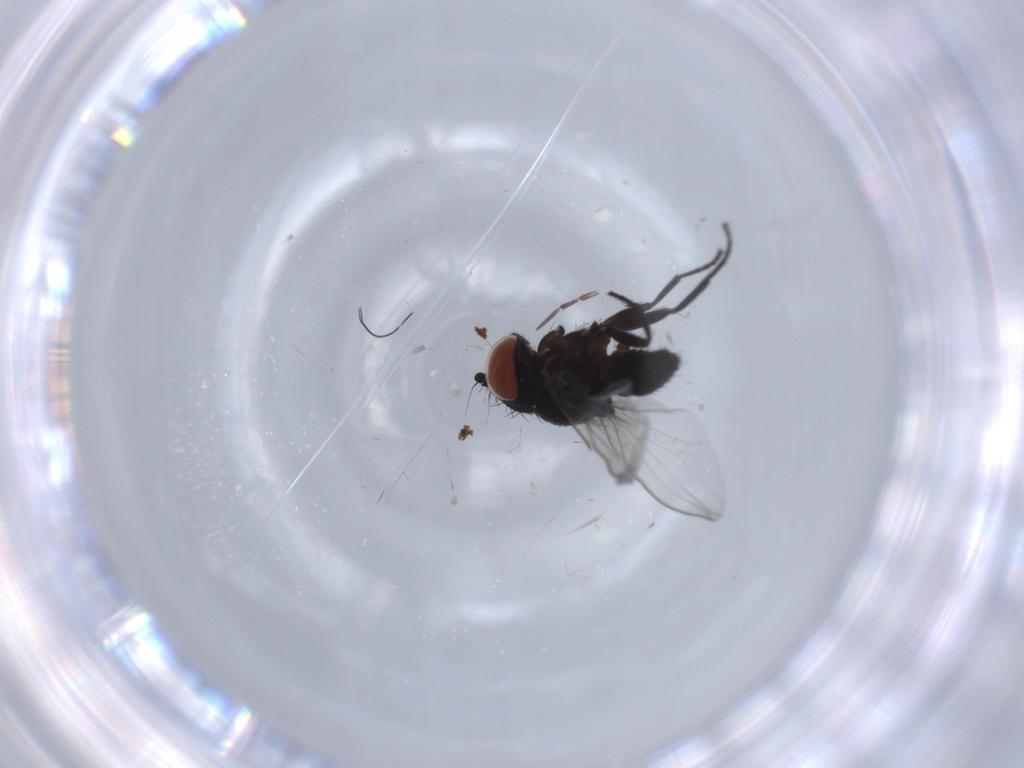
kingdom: Animalia
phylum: Arthropoda
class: Insecta
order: Diptera
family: Milichiidae
